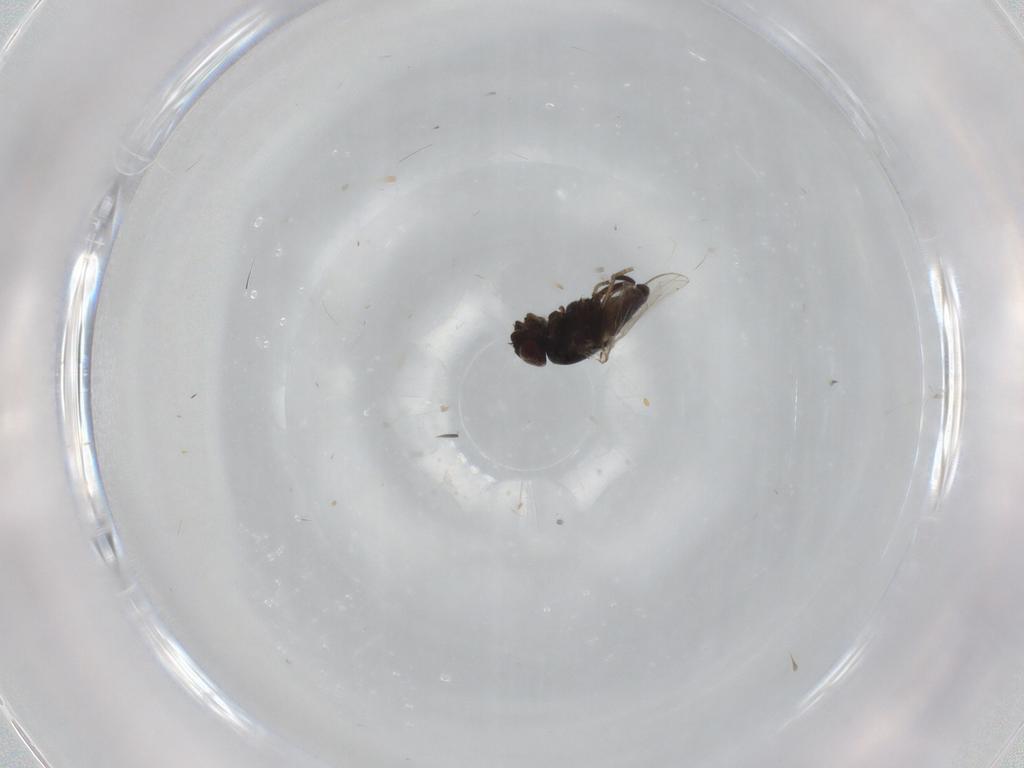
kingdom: Animalia
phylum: Arthropoda
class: Insecta
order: Diptera
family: Milichiidae
